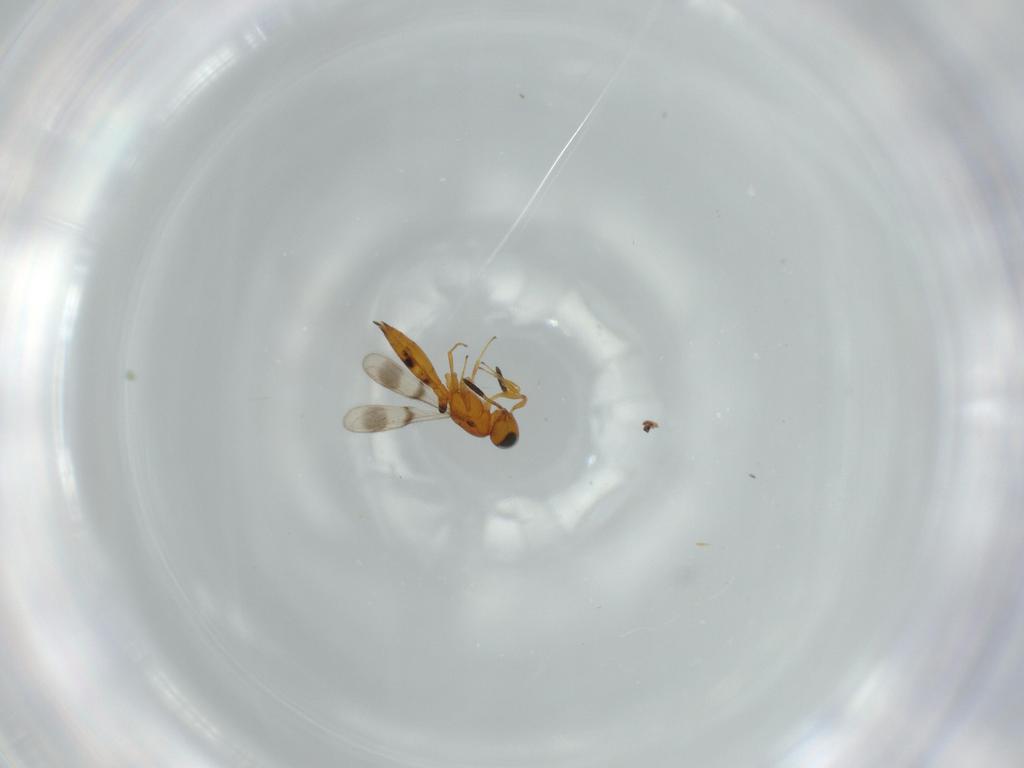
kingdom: Animalia
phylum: Arthropoda
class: Insecta
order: Hymenoptera
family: Scelionidae
